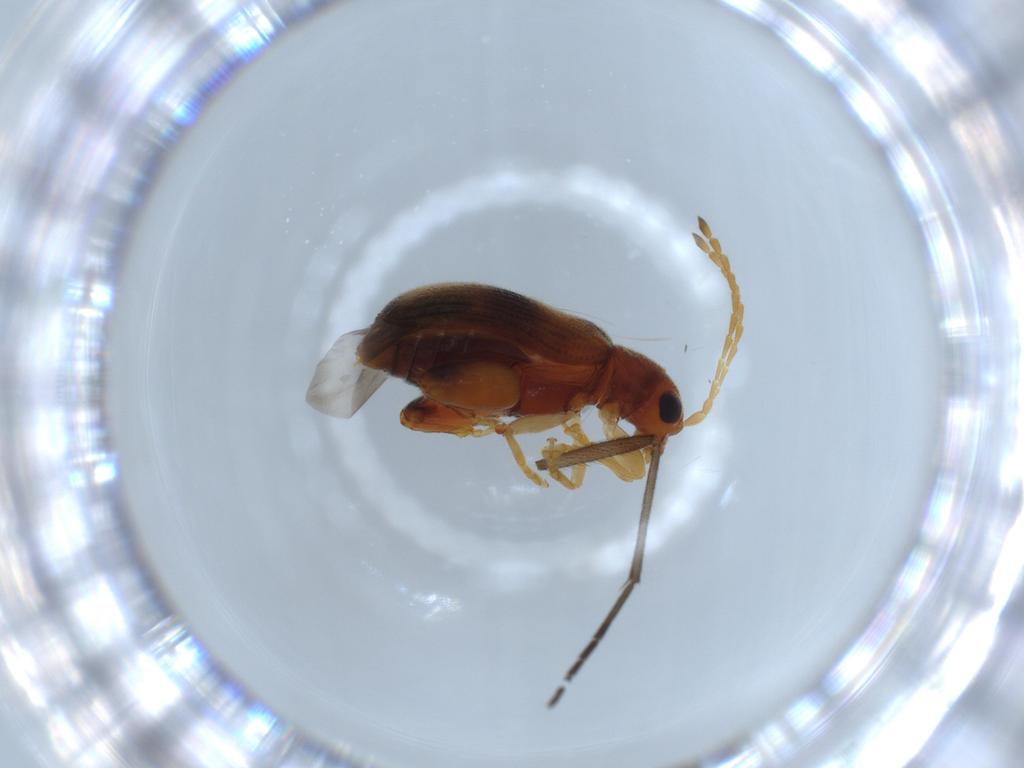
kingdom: Animalia
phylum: Arthropoda
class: Insecta
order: Coleoptera
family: Chrysomelidae
